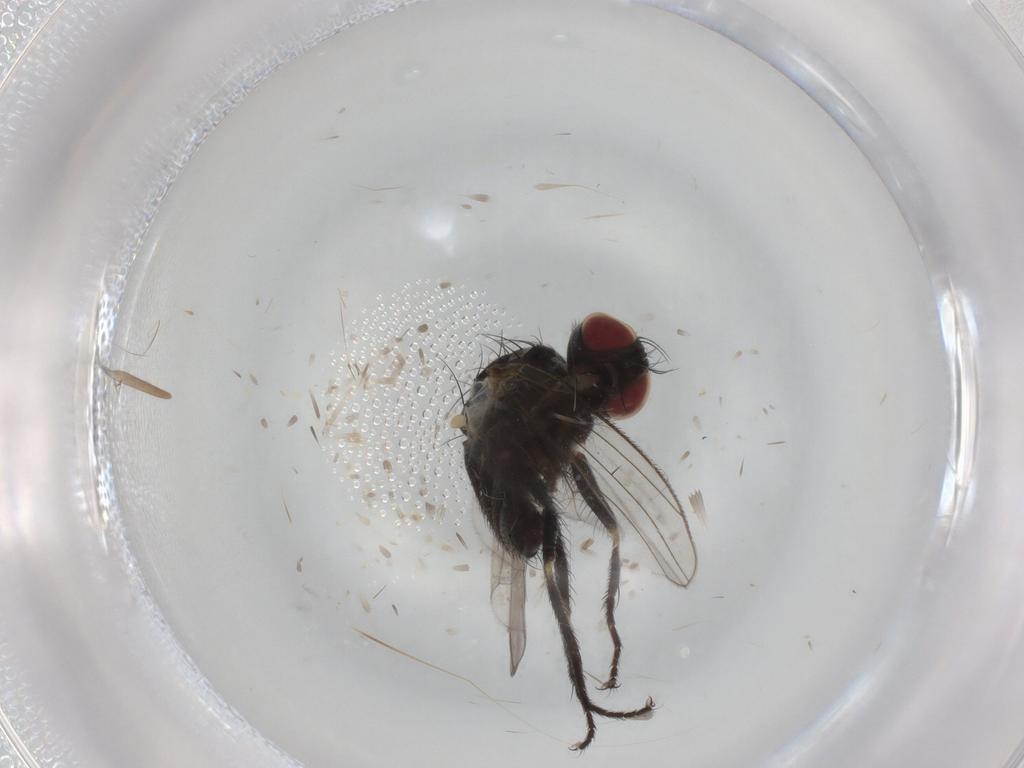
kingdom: Animalia
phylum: Arthropoda
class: Insecta
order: Diptera
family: Muscidae
